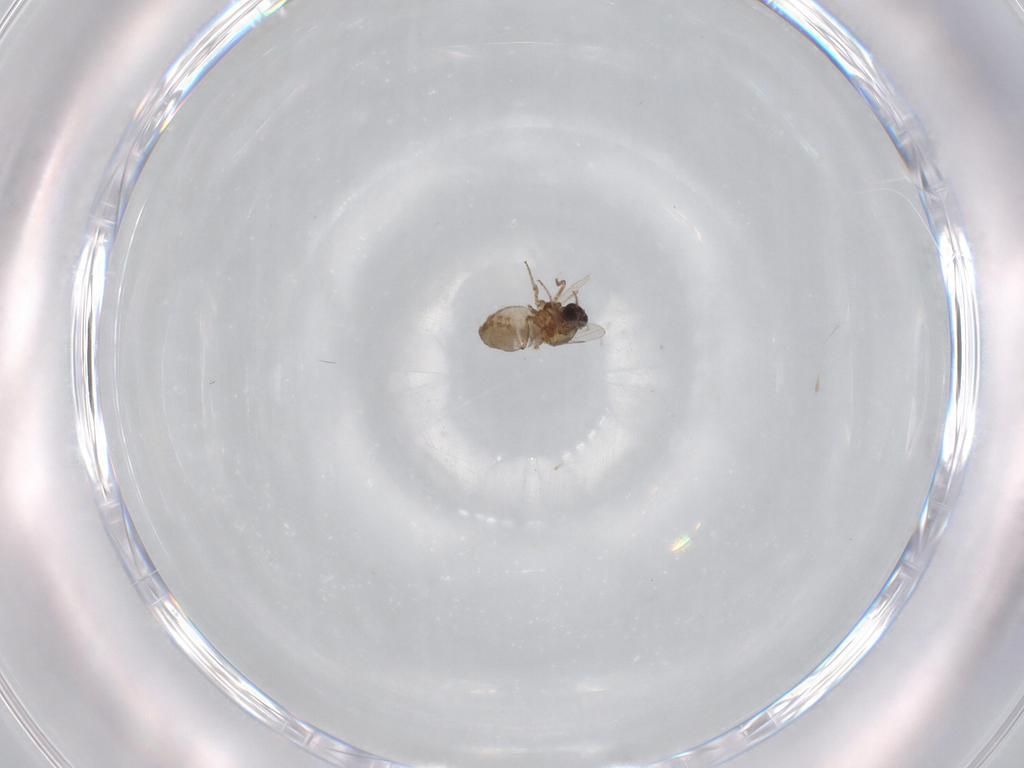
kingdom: Animalia
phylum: Arthropoda
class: Insecta
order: Diptera
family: Ceratopogonidae
